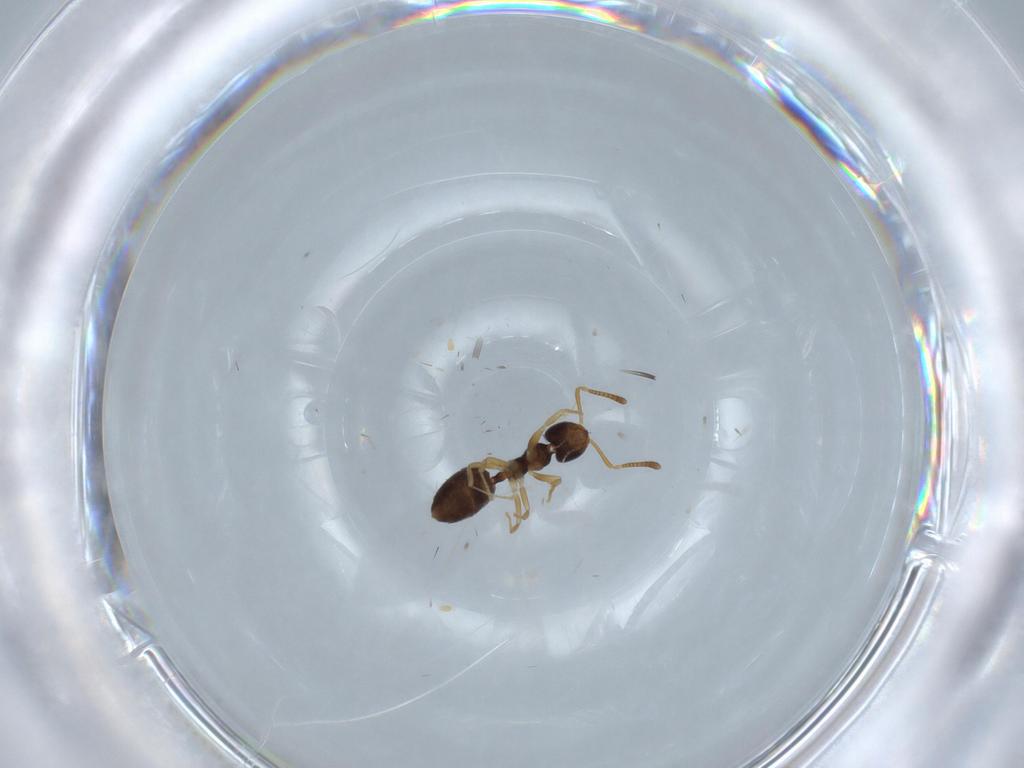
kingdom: Animalia
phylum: Arthropoda
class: Insecta
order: Hymenoptera
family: Formicidae
